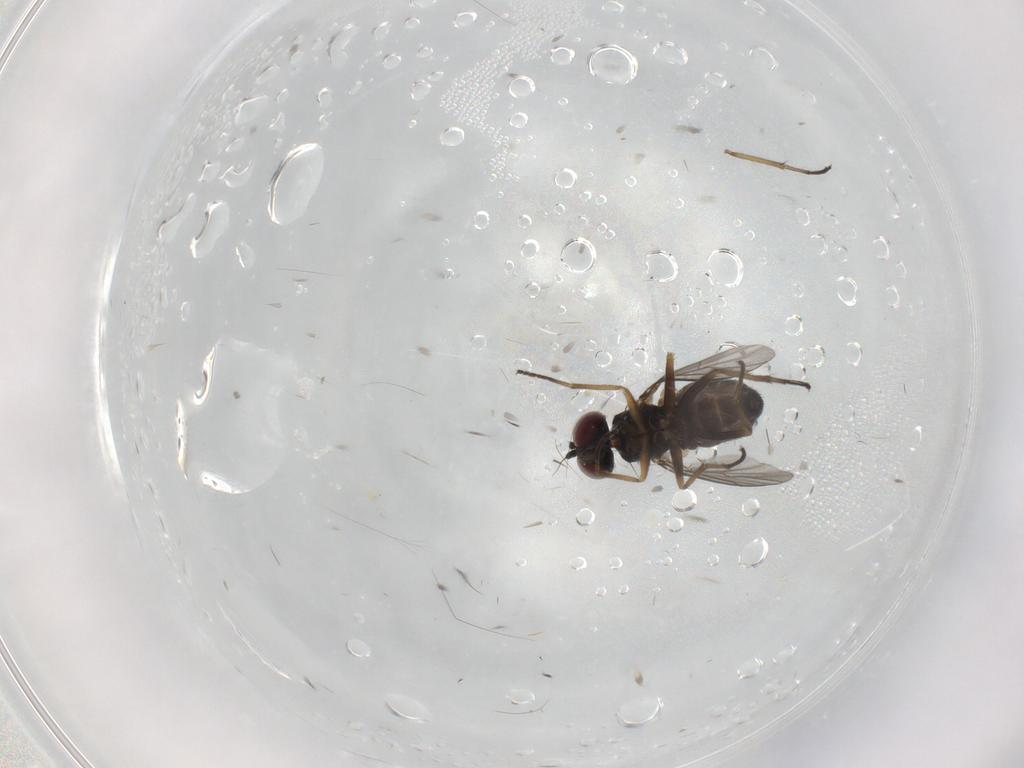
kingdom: Animalia
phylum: Arthropoda
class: Insecta
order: Diptera
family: Dolichopodidae
